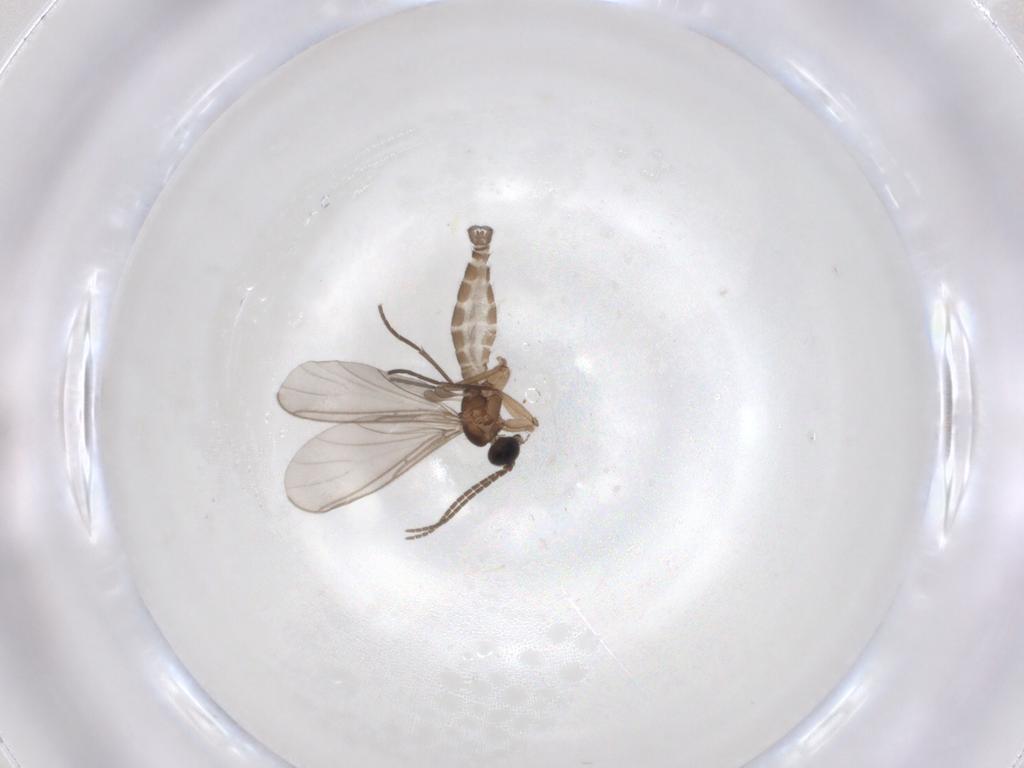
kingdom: Animalia
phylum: Arthropoda
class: Insecta
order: Diptera
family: Sciaridae
